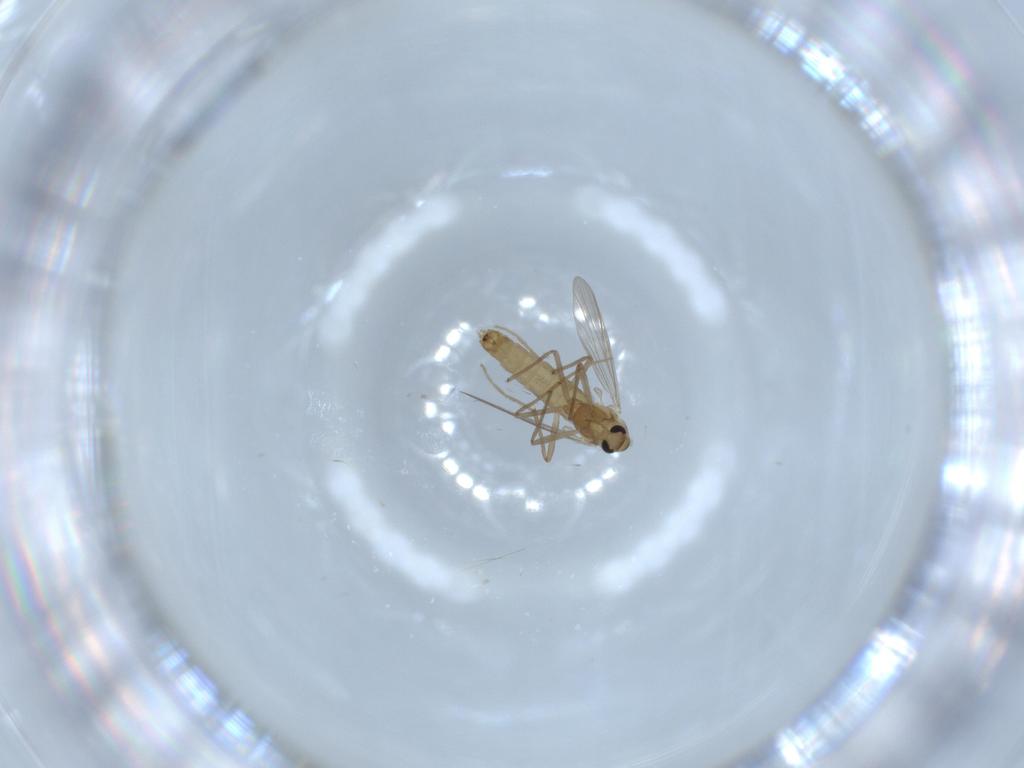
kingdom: Animalia
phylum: Arthropoda
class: Insecta
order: Diptera
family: Chironomidae
